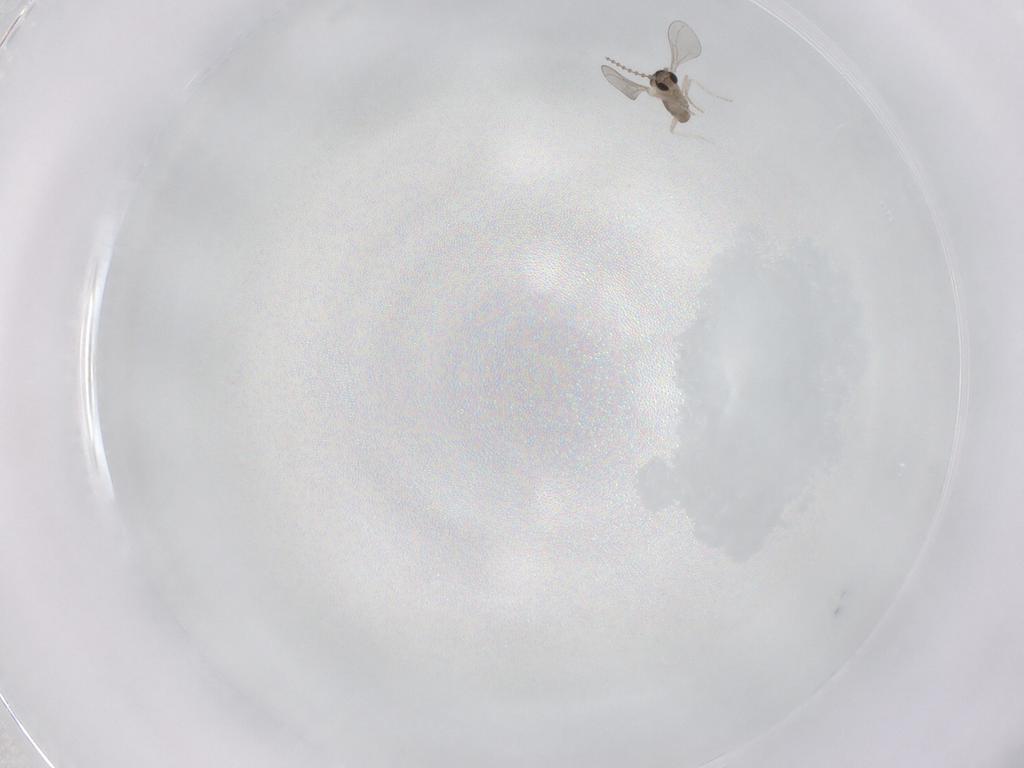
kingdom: Animalia
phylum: Arthropoda
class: Insecta
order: Diptera
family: Cecidomyiidae
